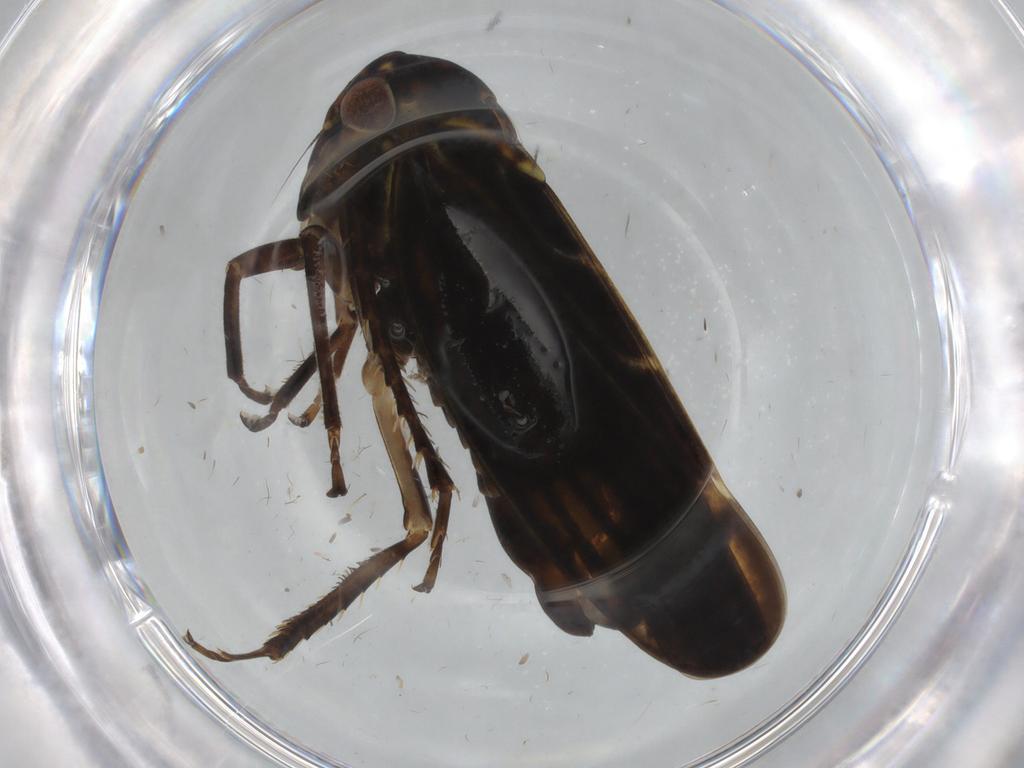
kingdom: Animalia
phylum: Arthropoda
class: Insecta
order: Hemiptera
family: Cicadellidae
